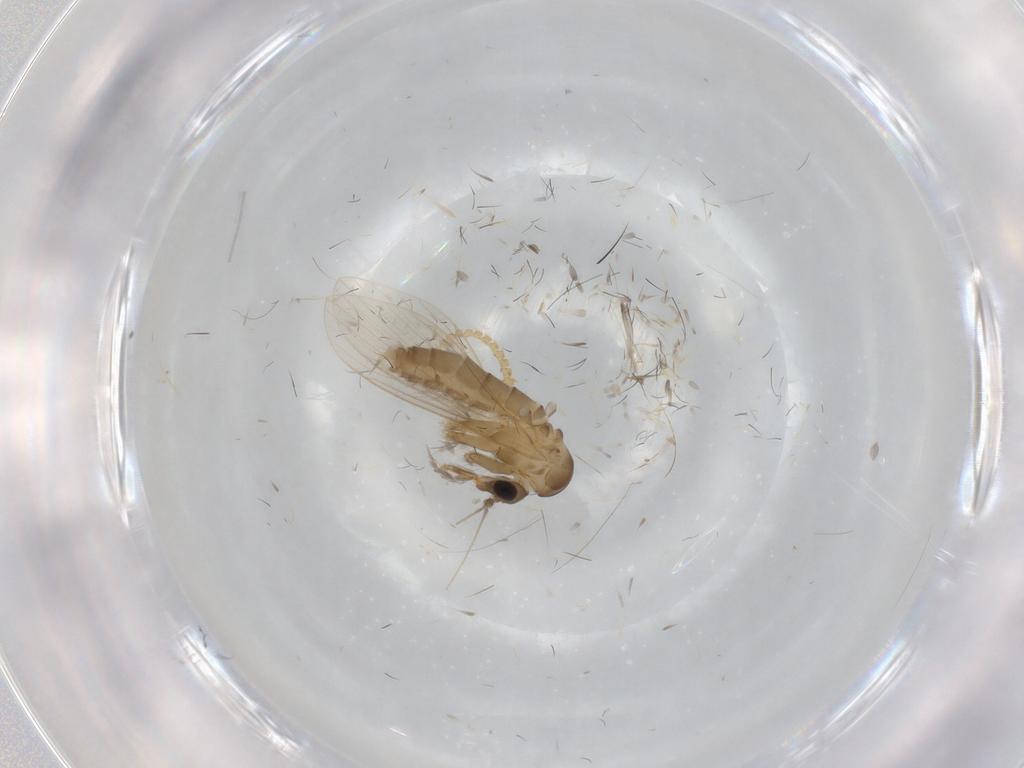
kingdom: Animalia
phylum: Arthropoda
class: Insecta
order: Diptera
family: Psychodidae
